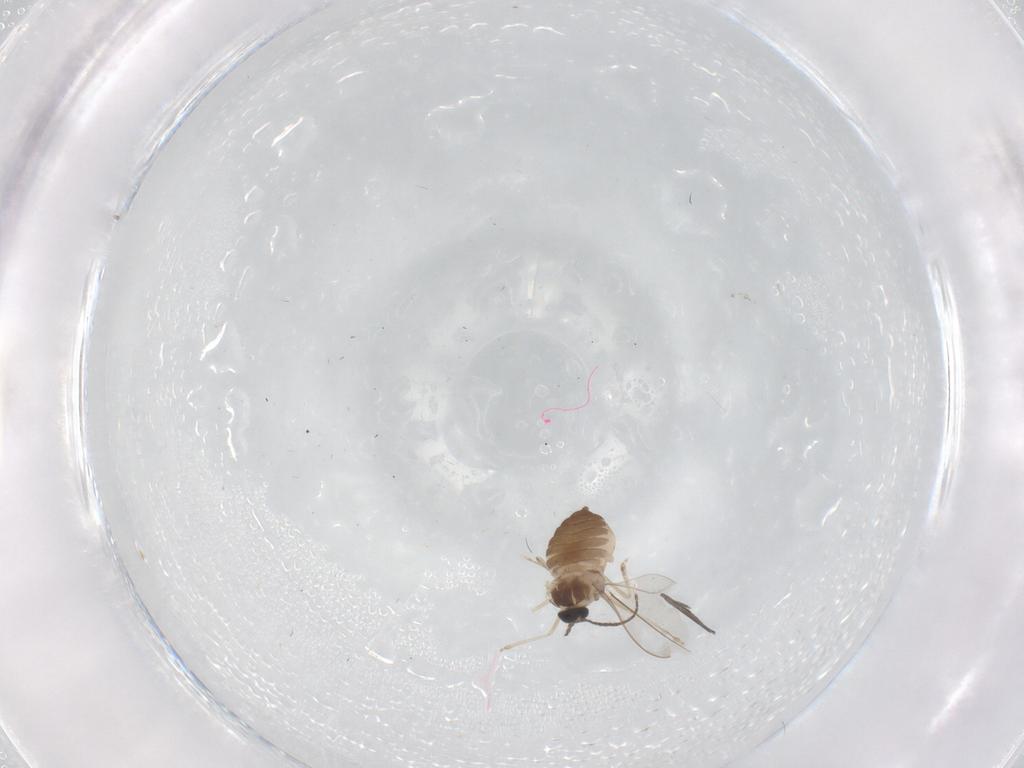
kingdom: Animalia
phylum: Arthropoda
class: Insecta
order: Diptera
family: Cecidomyiidae
